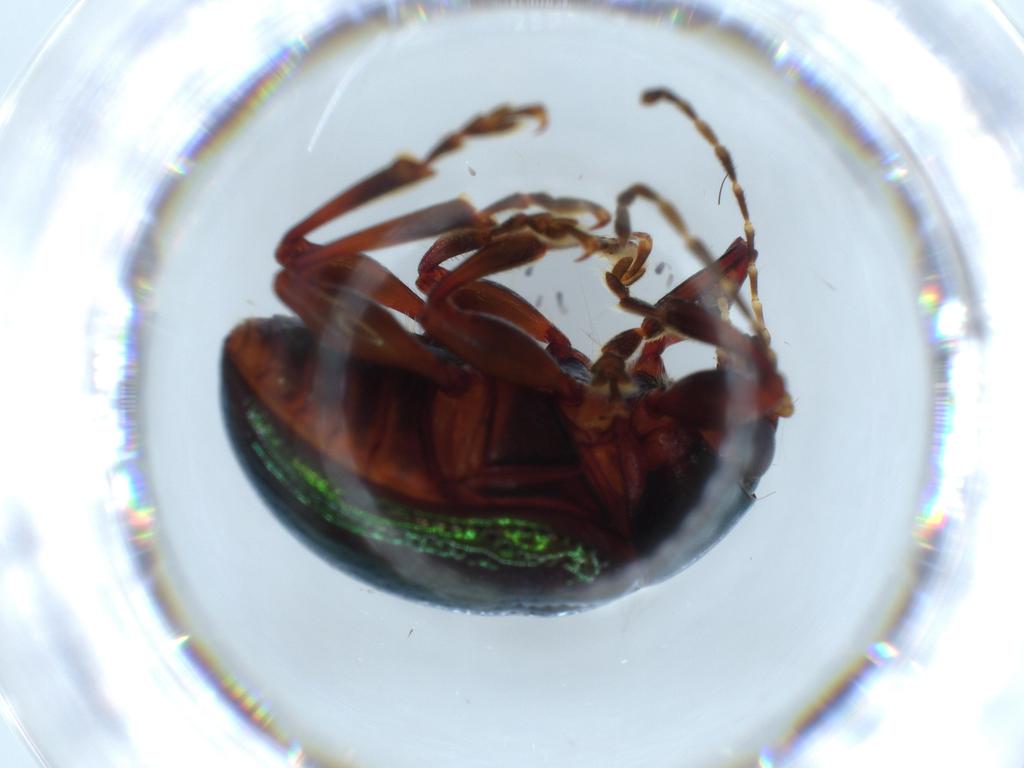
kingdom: Animalia
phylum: Arthropoda
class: Insecta
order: Coleoptera
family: Chrysomelidae
